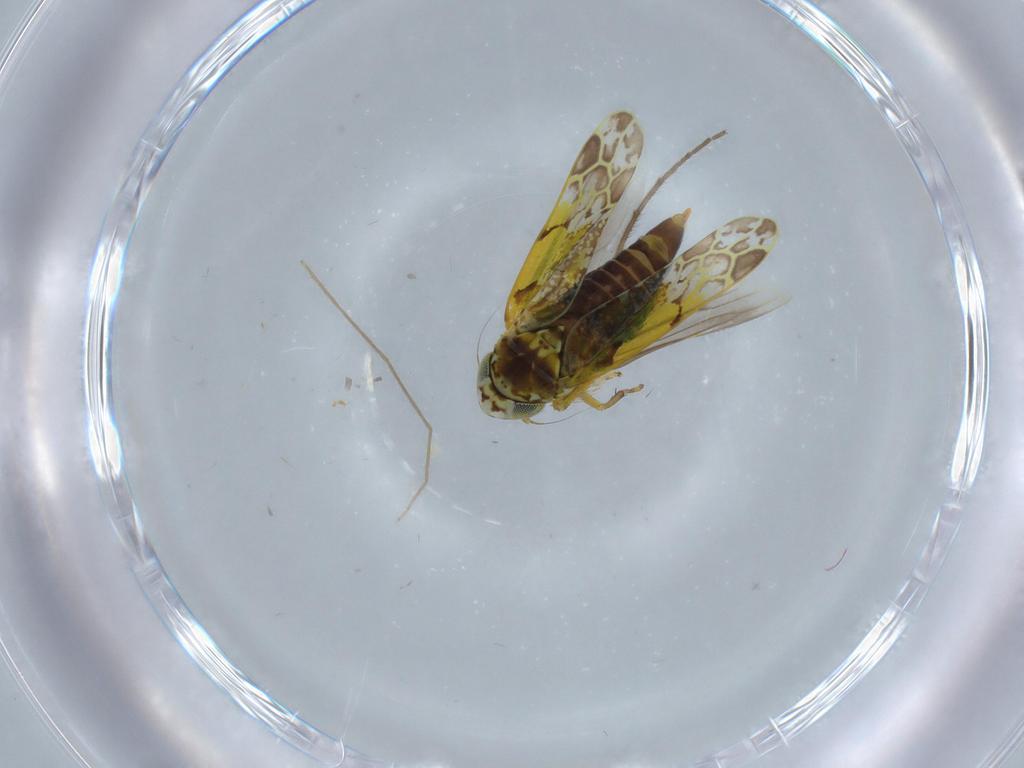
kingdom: Animalia
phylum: Arthropoda
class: Insecta
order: Hemiptera
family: Cicadellidae
